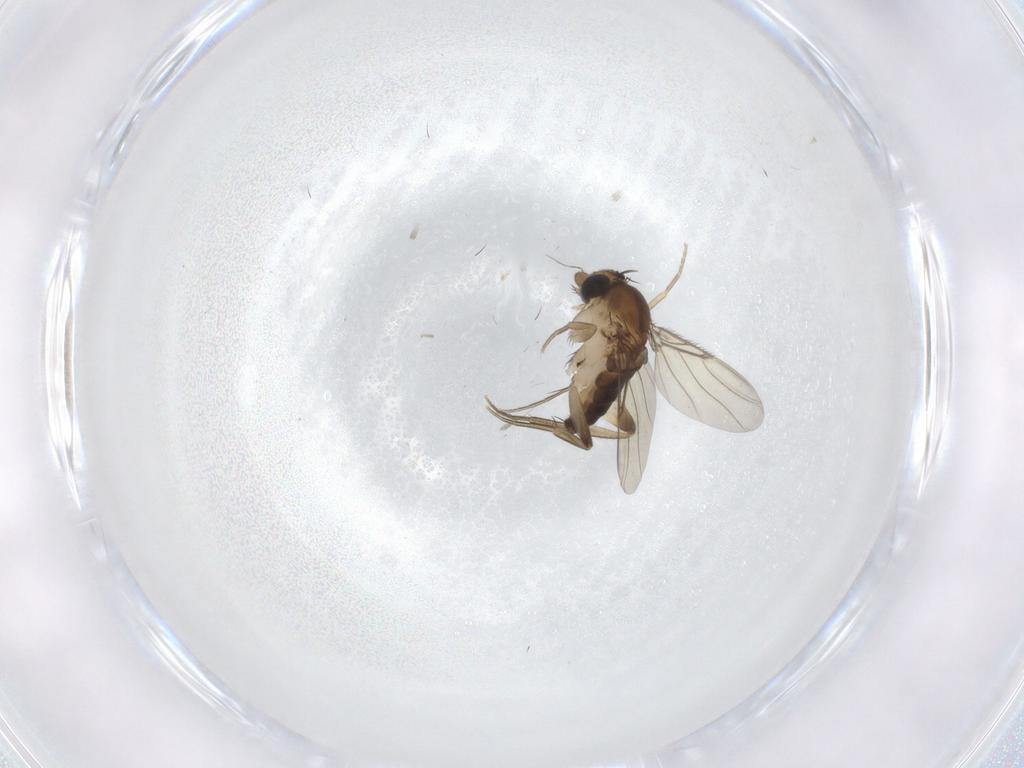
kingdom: Animalia
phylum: Arthropoda
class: Insecta
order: Diptera
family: Phoridae
